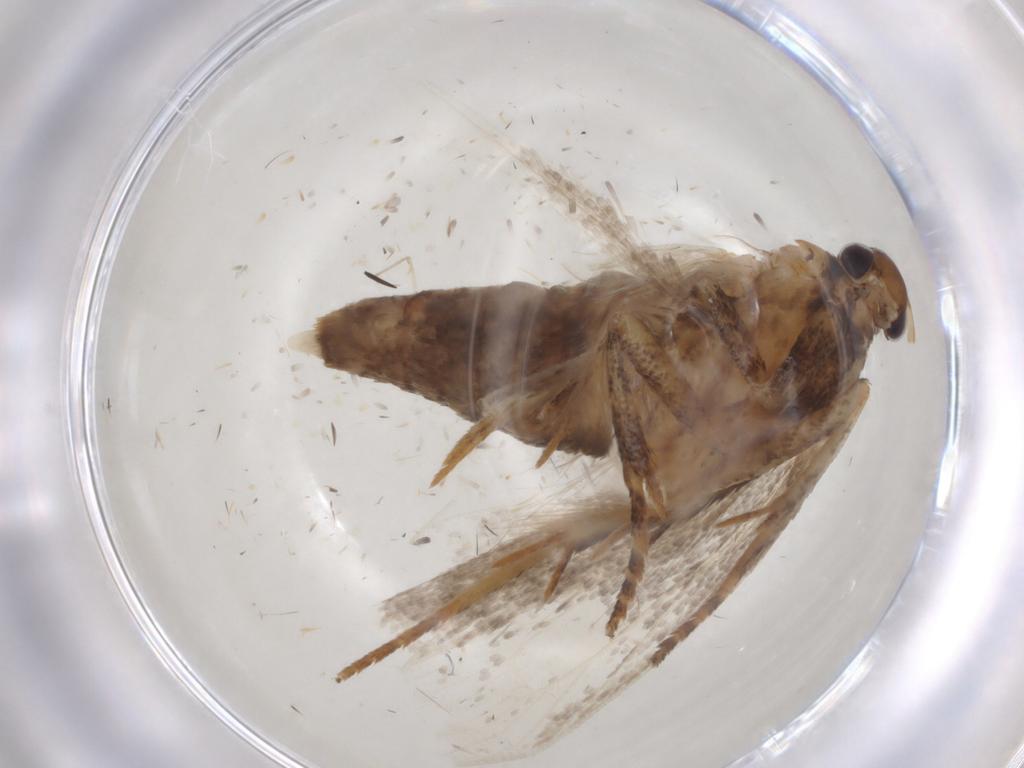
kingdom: Animalia
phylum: Arthropoda
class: Insecta
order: Lepidoptera
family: Gelechiidae
